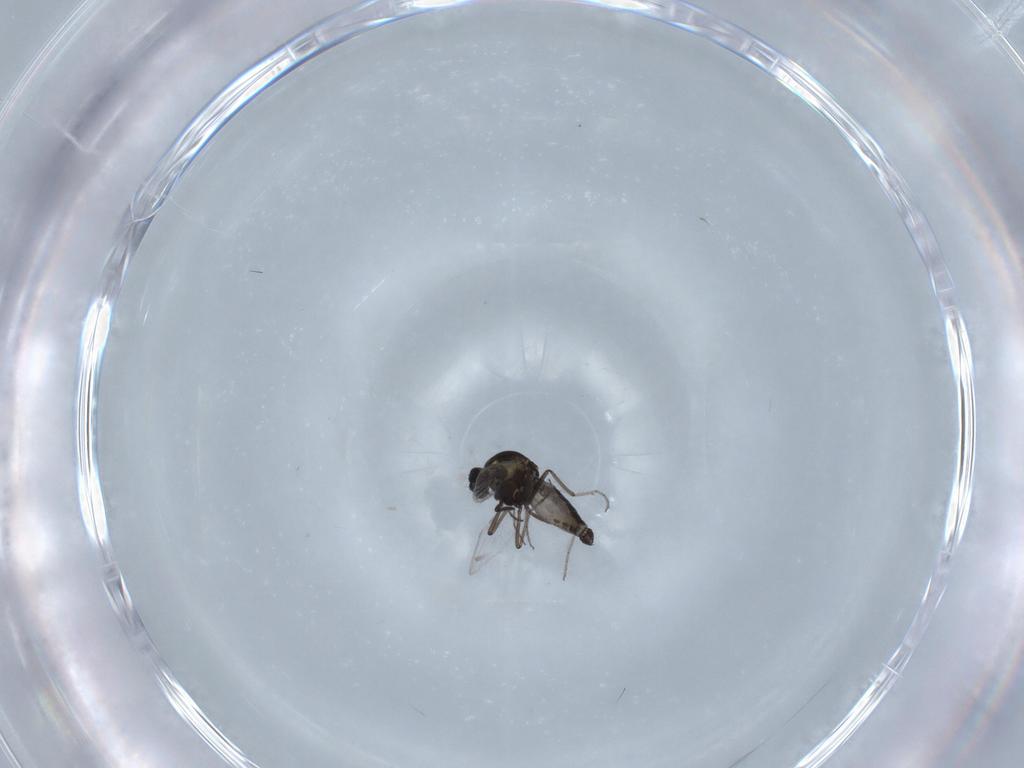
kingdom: Animalia
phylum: Arthropoda
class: Insecta
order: Diptera
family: Ceratopogonidae
